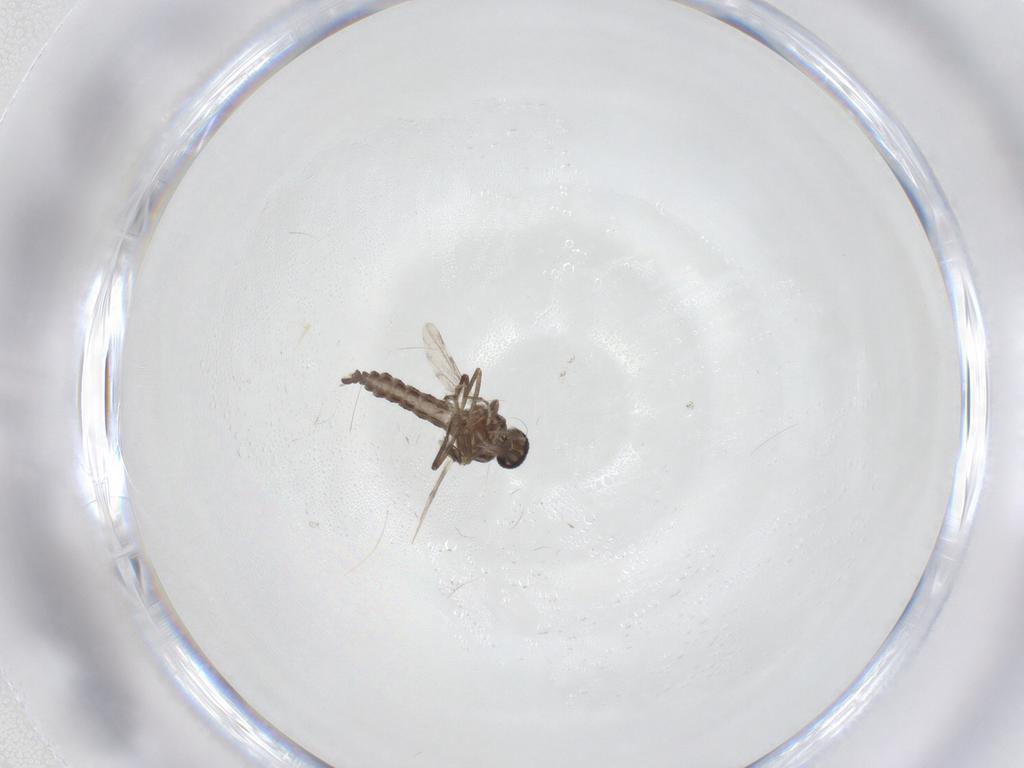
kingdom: Animalia
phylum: Arthropoda
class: Insecta
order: Diptera
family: Ceratopogonidae
